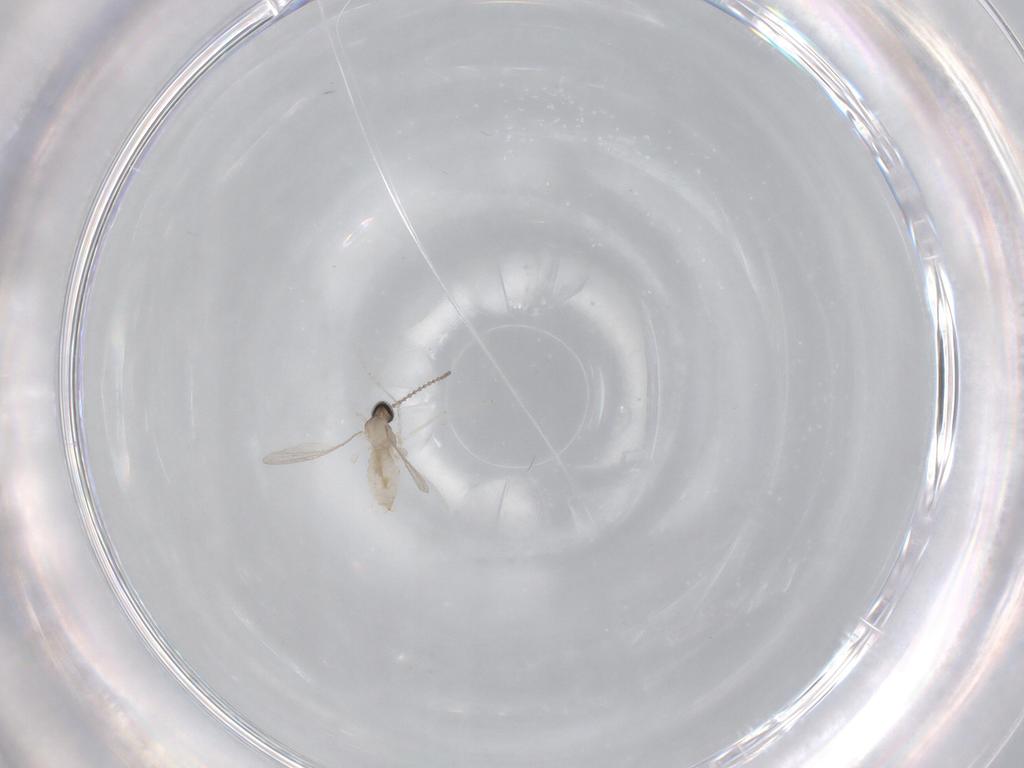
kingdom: Animalia
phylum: Arthropoda
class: Insecta
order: Diptera
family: Cecidomyiidae
